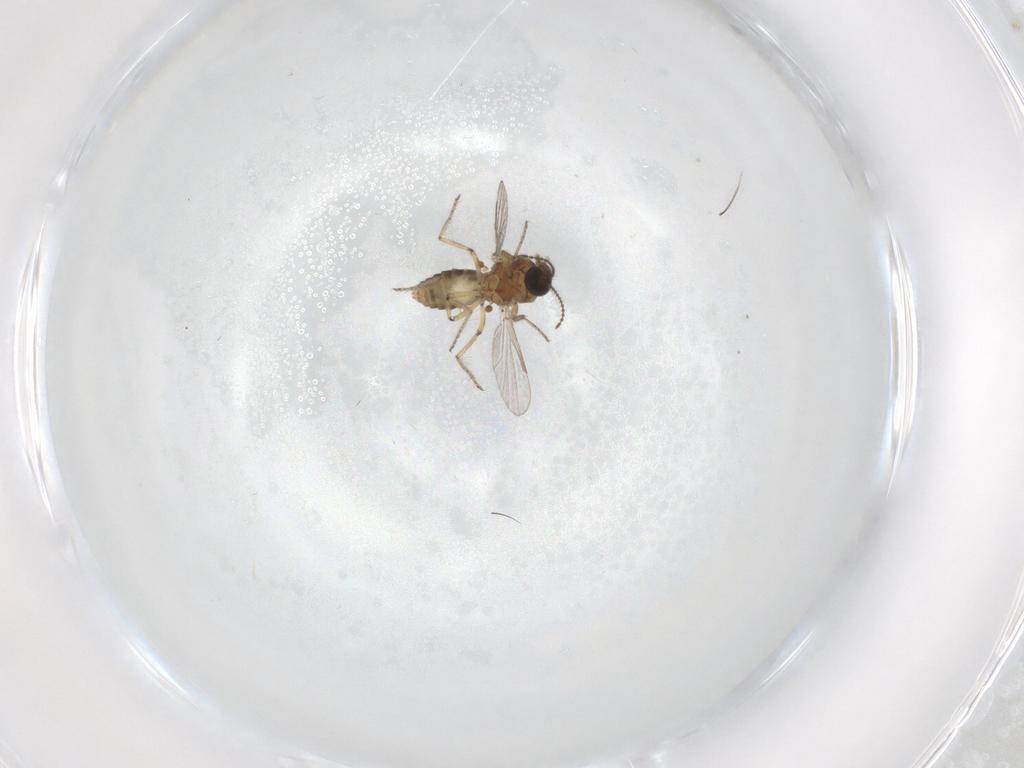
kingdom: Animalia
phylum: Arthropoda
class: Insecta
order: Diptera
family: Ceratopogonidae
